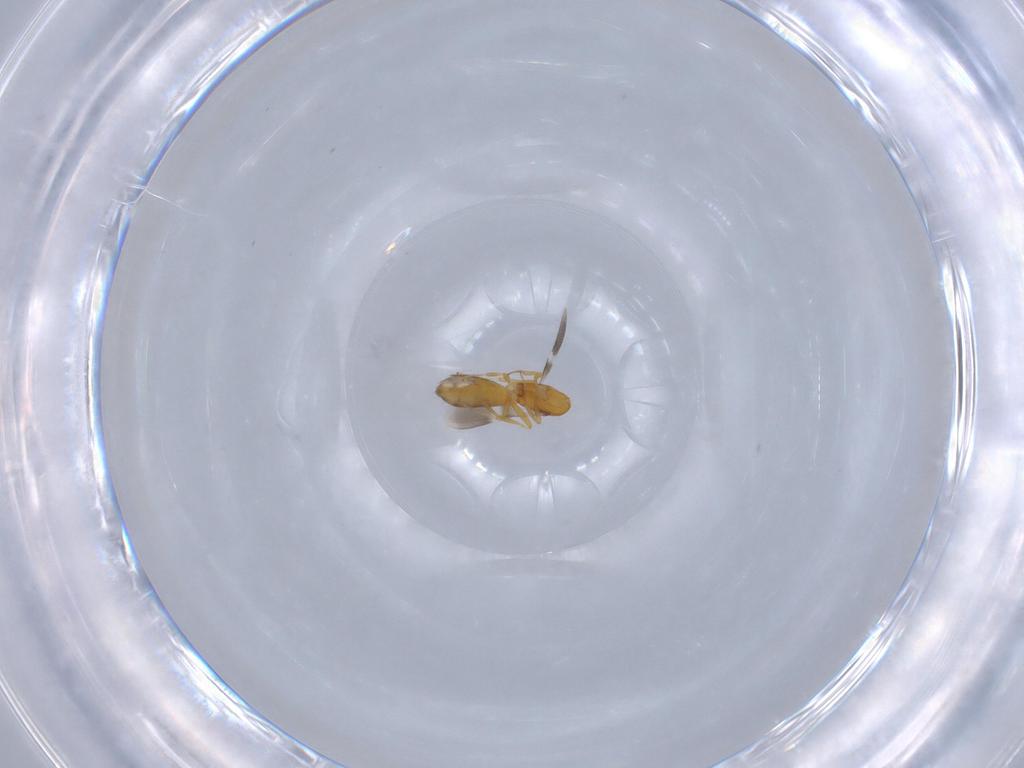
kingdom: Animalia
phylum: Arthropoda
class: Insecta
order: Hymenoptera
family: Scelionidae
